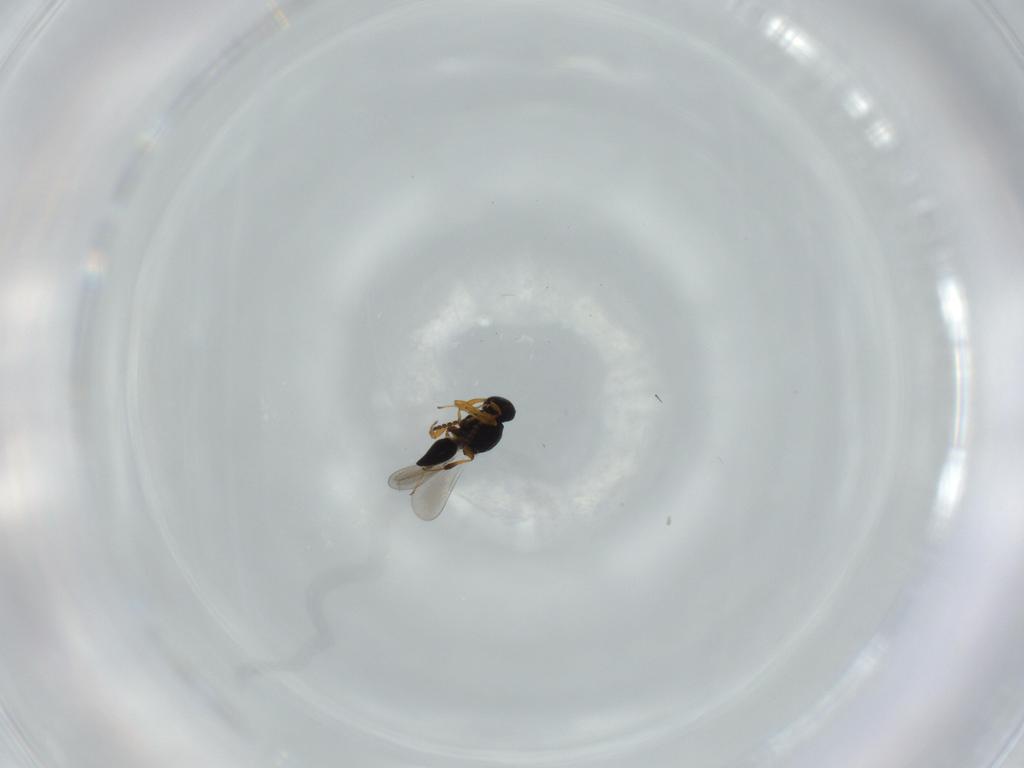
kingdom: Animalia
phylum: Arthropoda
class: Insecta
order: Hymenoptera
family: Platygastridae
